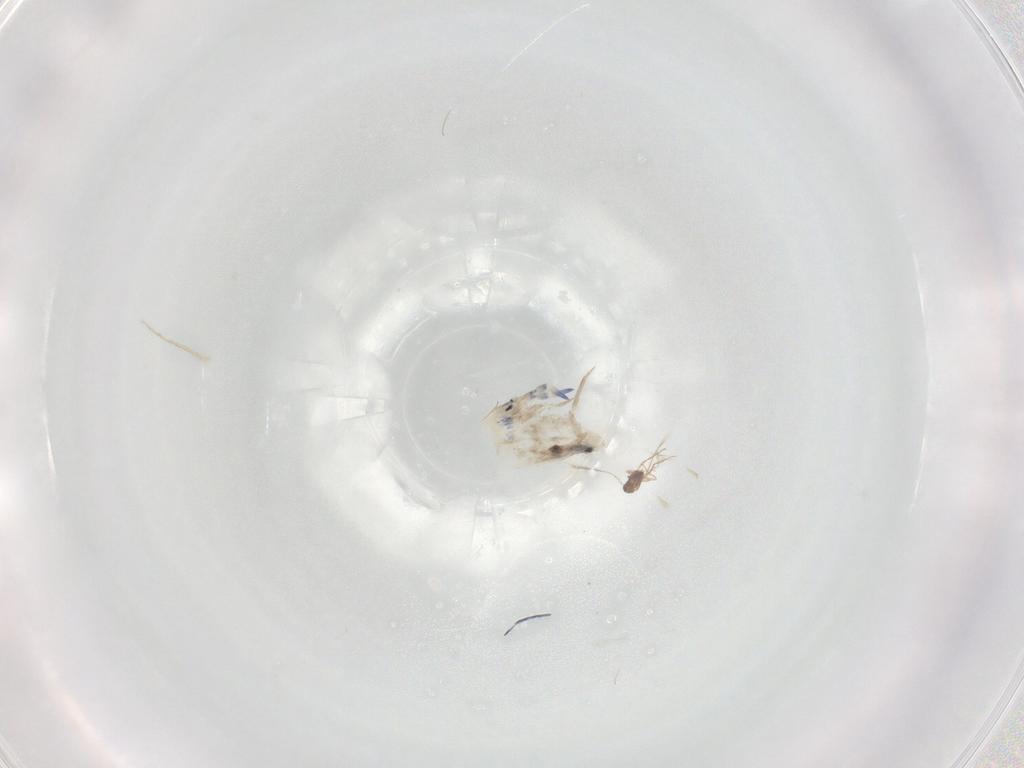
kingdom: Animalia
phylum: Arthropoda
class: Collembola
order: Entomobryomorpha
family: Entomobryidae
